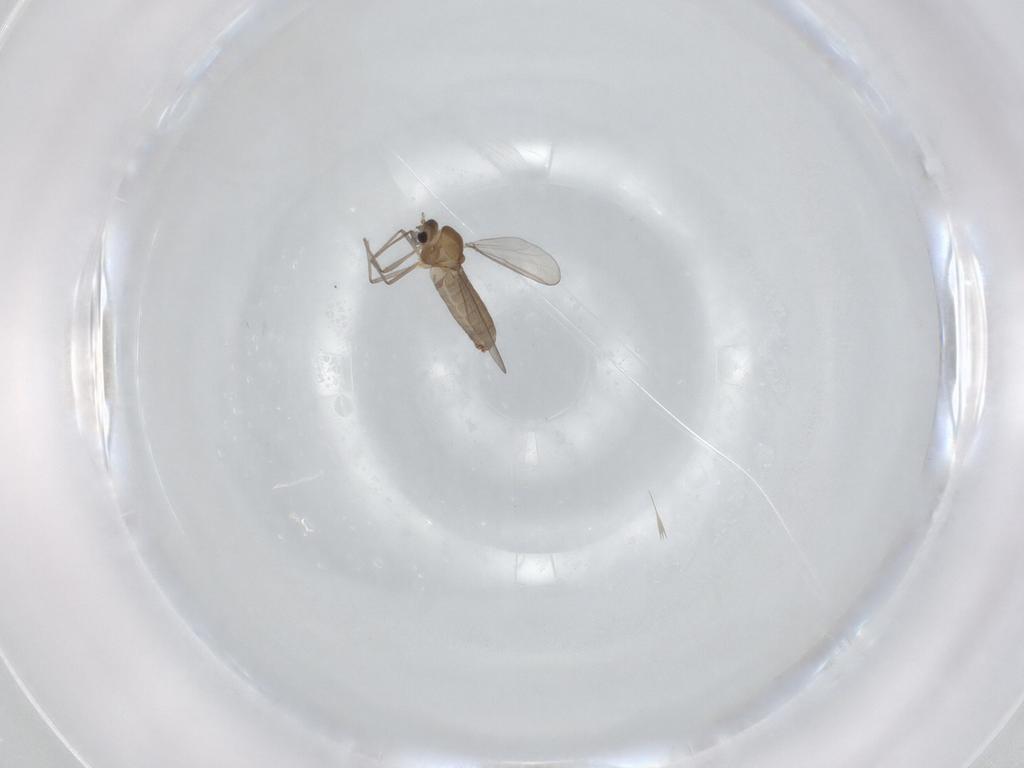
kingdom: Animalia
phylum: Arthropoda
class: Insecta
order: Diptera
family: Chironomidae
